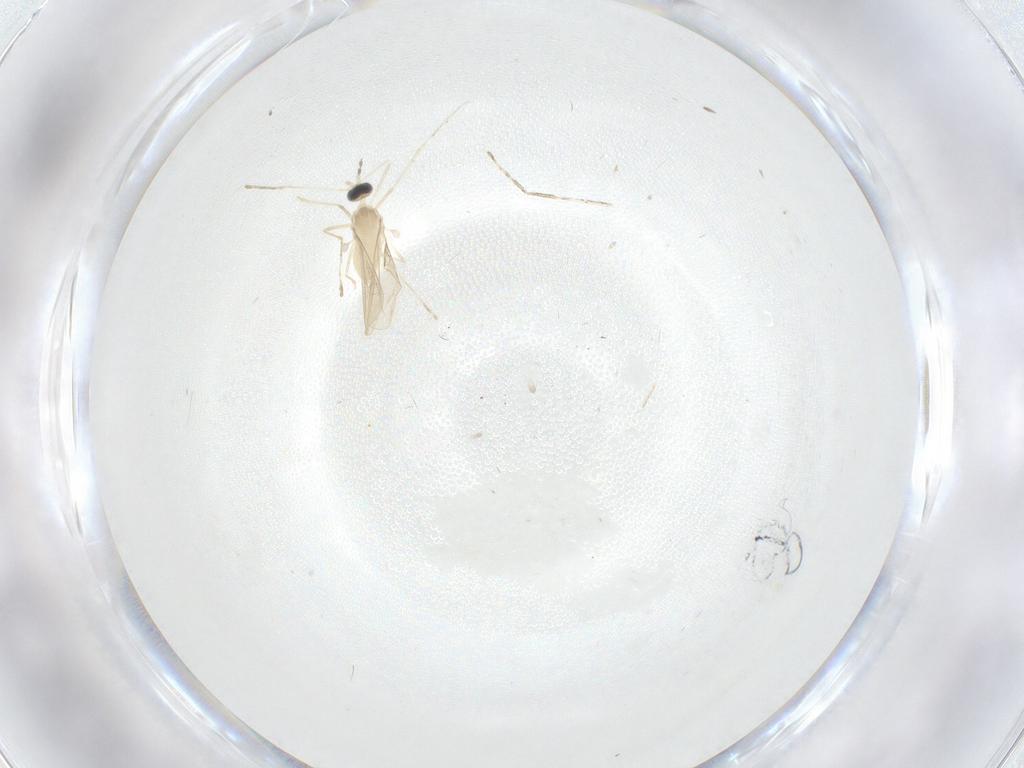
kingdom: Animalia
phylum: Arthropoda
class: Insecta
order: Diptera
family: Cecidomyiidae
